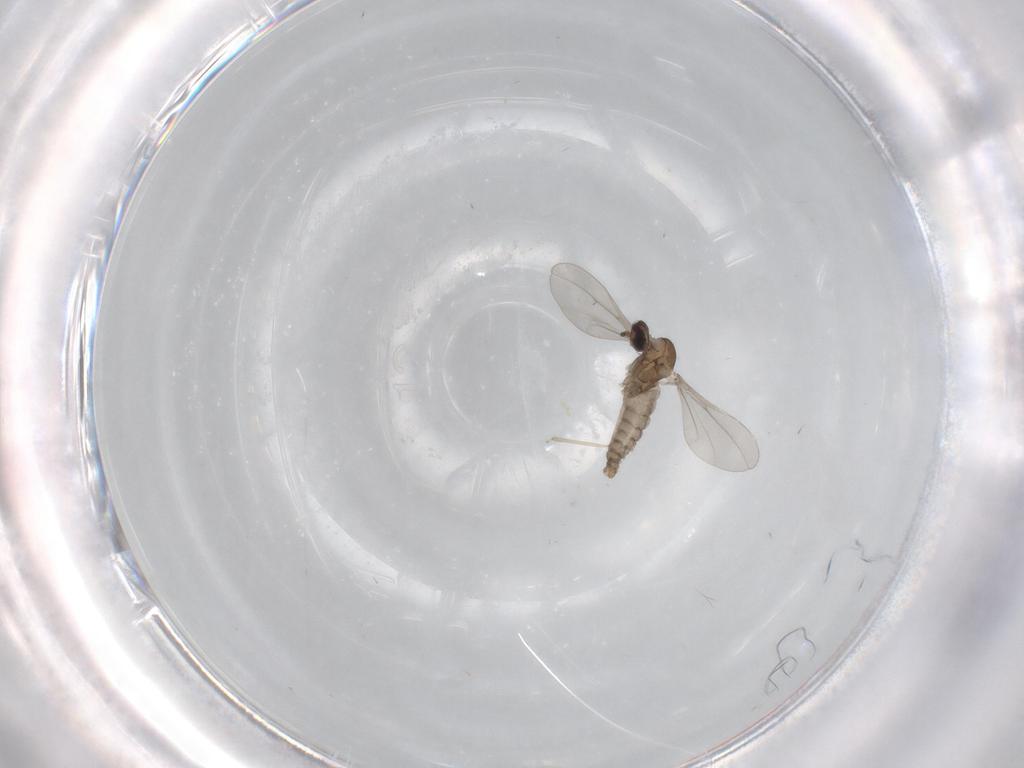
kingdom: Animalia
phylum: Arthropoda
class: Insecta
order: Diptera
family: Cecidomyiidae
